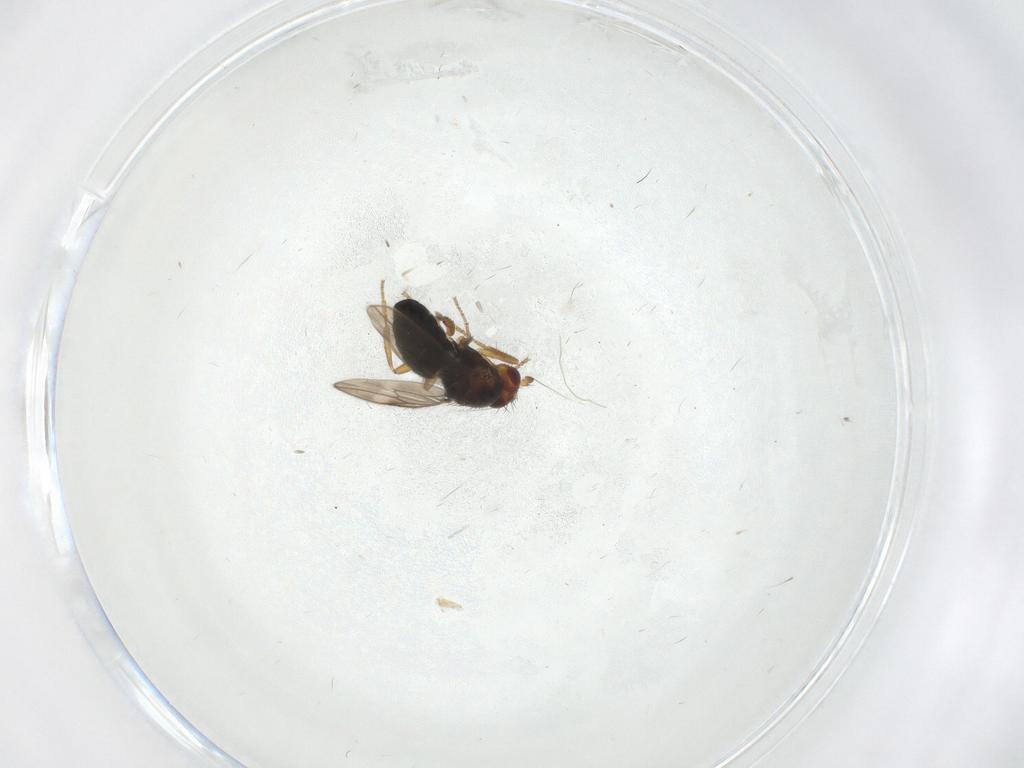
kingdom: Animalia
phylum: Arthropoda
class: Insecta
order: Diptera
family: Sphaeroceridae
